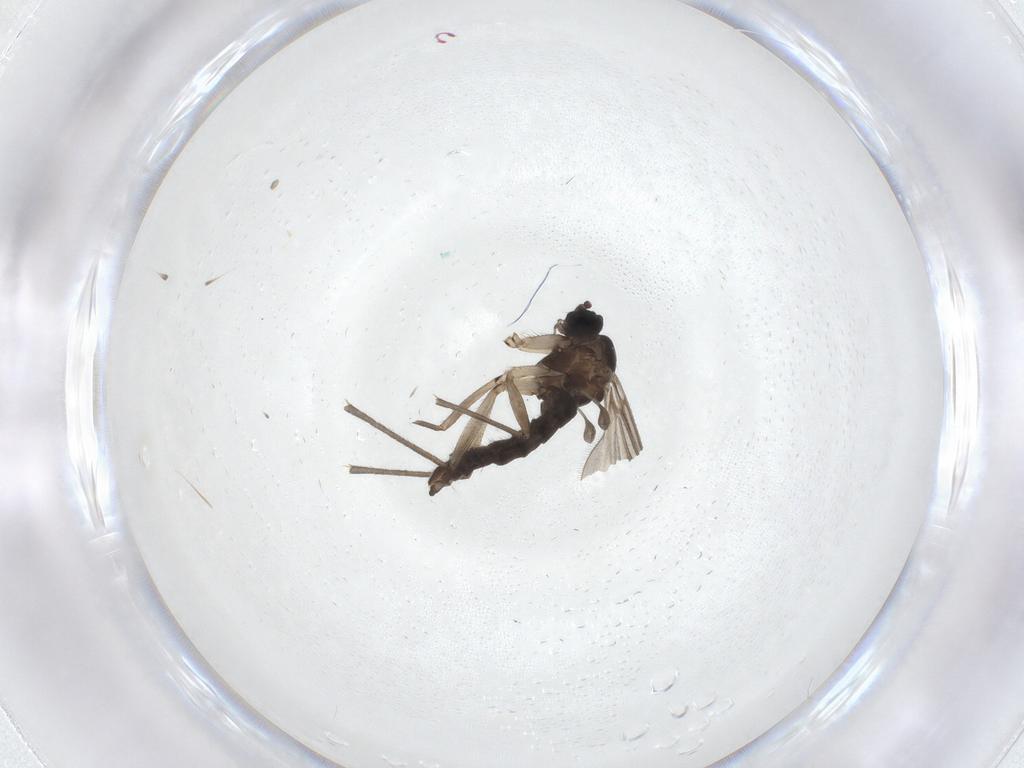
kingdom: Animalia
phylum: Arthropoda
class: Insecta
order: Diptera
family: Sciaridae
